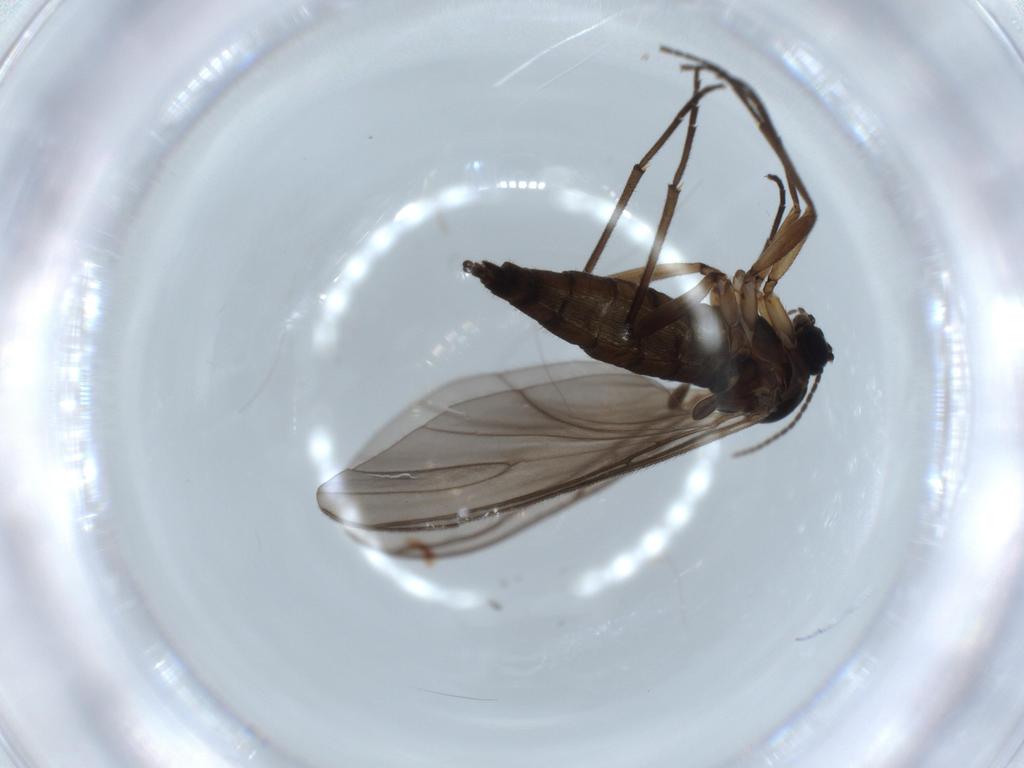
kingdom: Animalia
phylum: Arthropoda
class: Insecta
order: Diptera
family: Sciaridae
